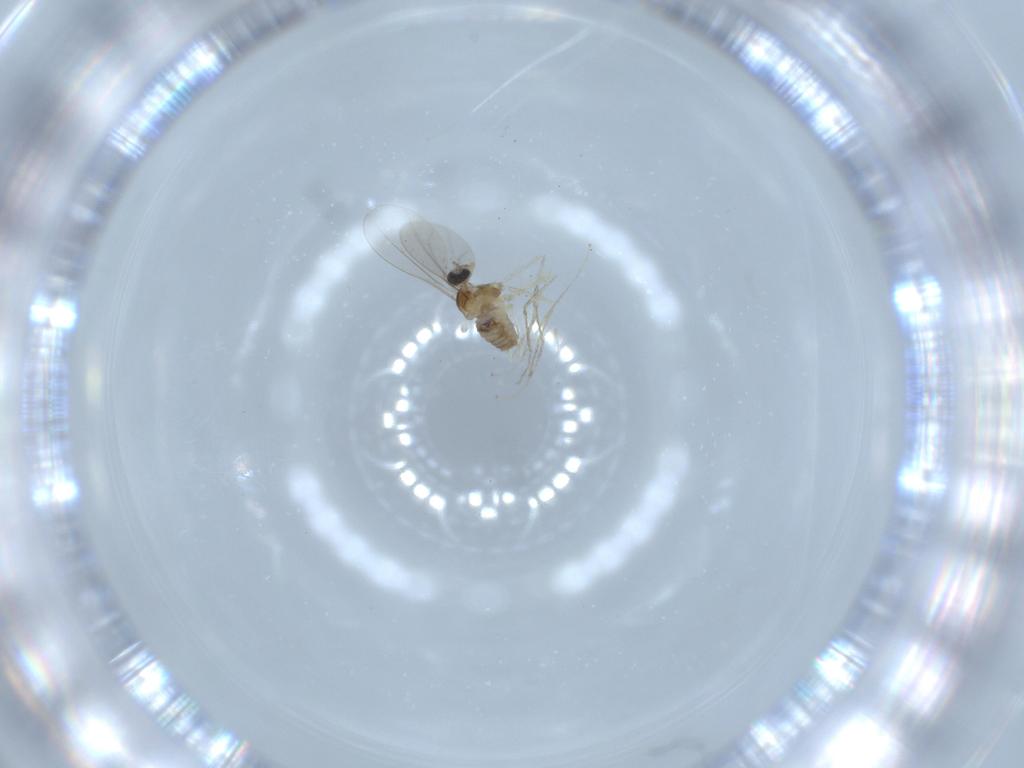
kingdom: Animalia
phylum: Arthropoda
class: Insecta
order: Diptera
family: Cecidomyiidae
